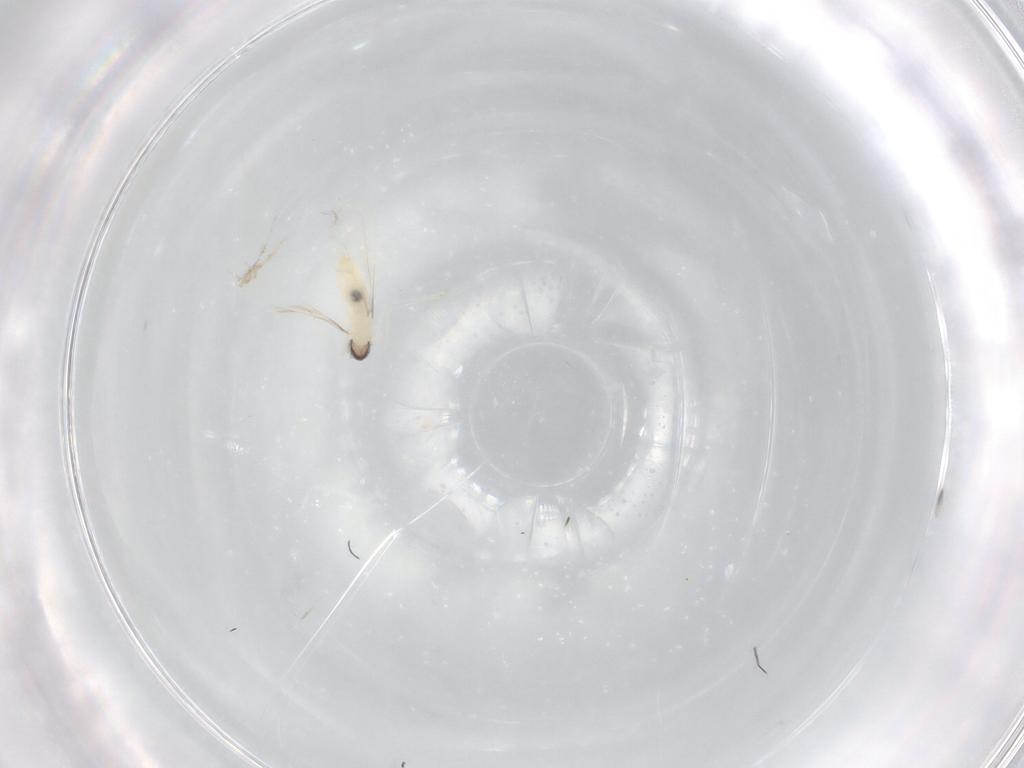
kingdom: Animalia
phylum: Arthropoda
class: Insecta
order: Diptera
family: Cecidomyiidae
